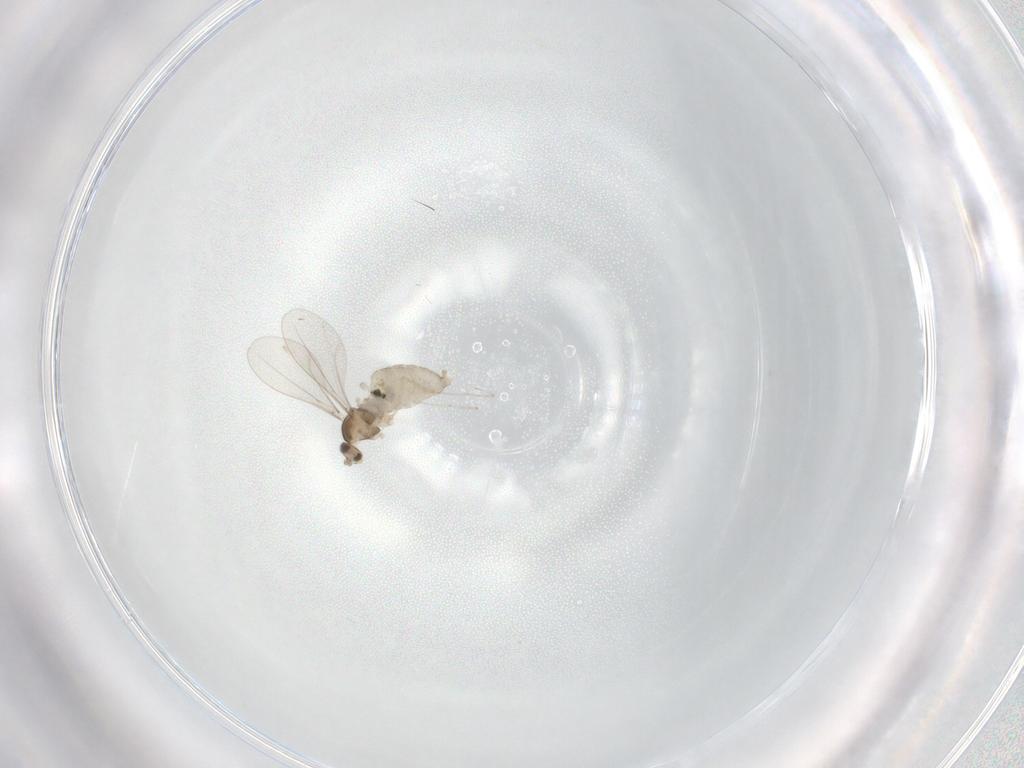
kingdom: Animalia
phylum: Arthropoda
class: Insecta
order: Diptera
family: Cecidomyiidae
